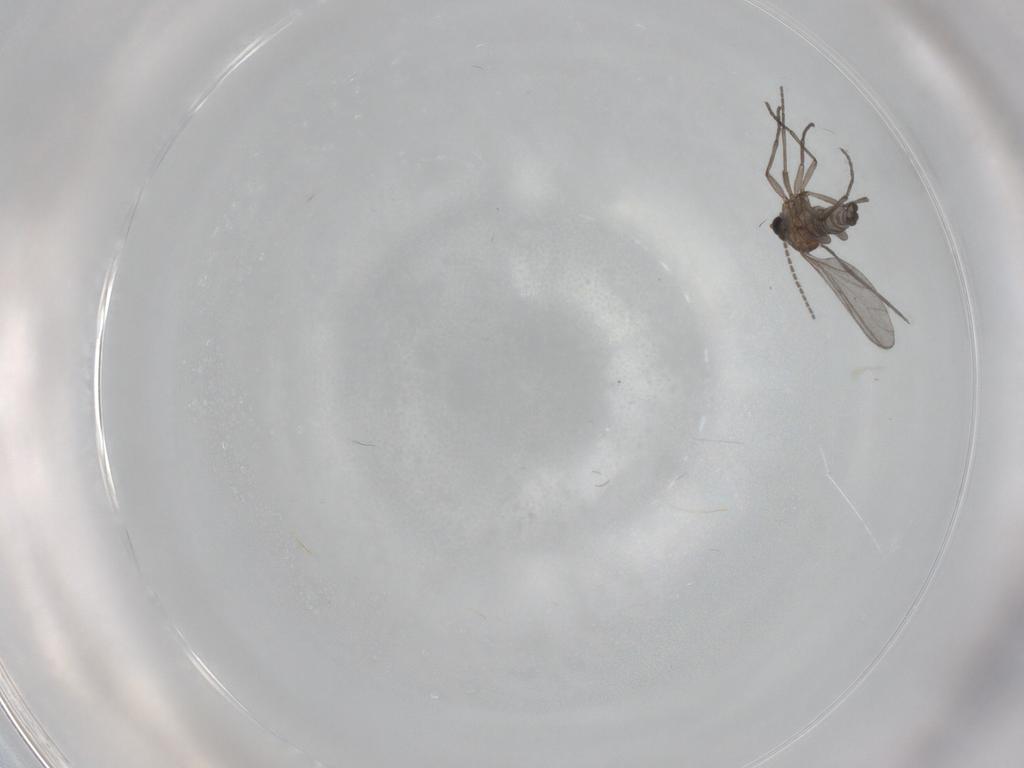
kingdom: Animalia
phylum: Arthropoda
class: Insecta
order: Diptera
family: Sciaridae
